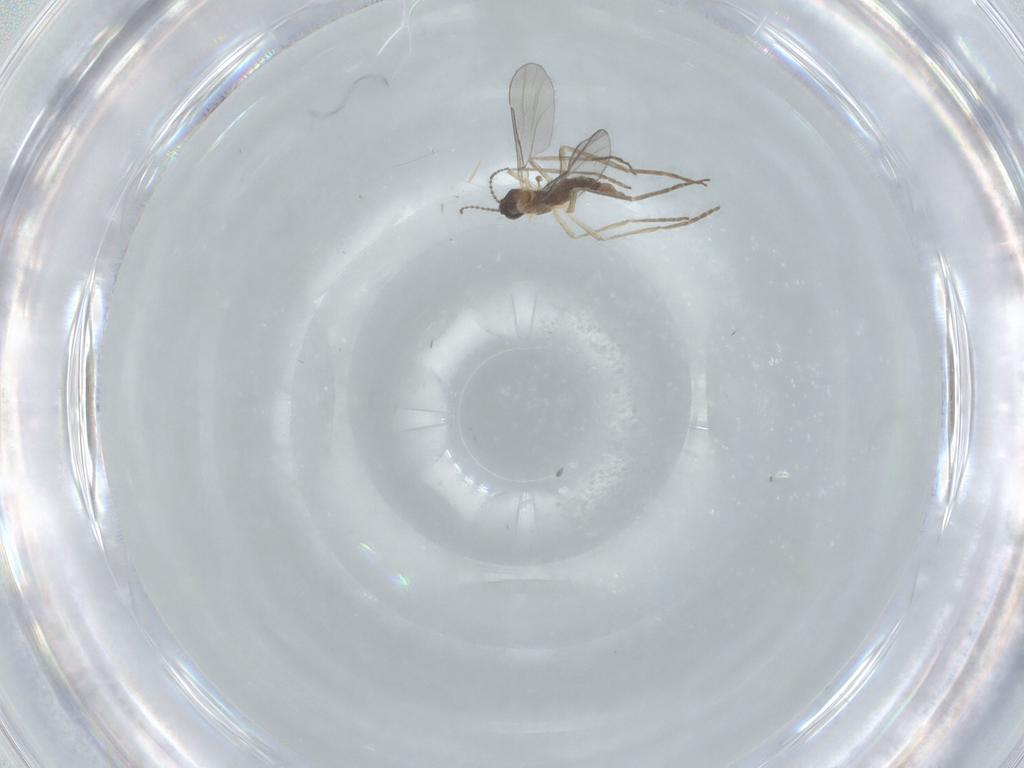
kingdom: Animalia
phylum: Arthropoda
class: Insecta
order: Diptera
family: Cecidomyiidae
